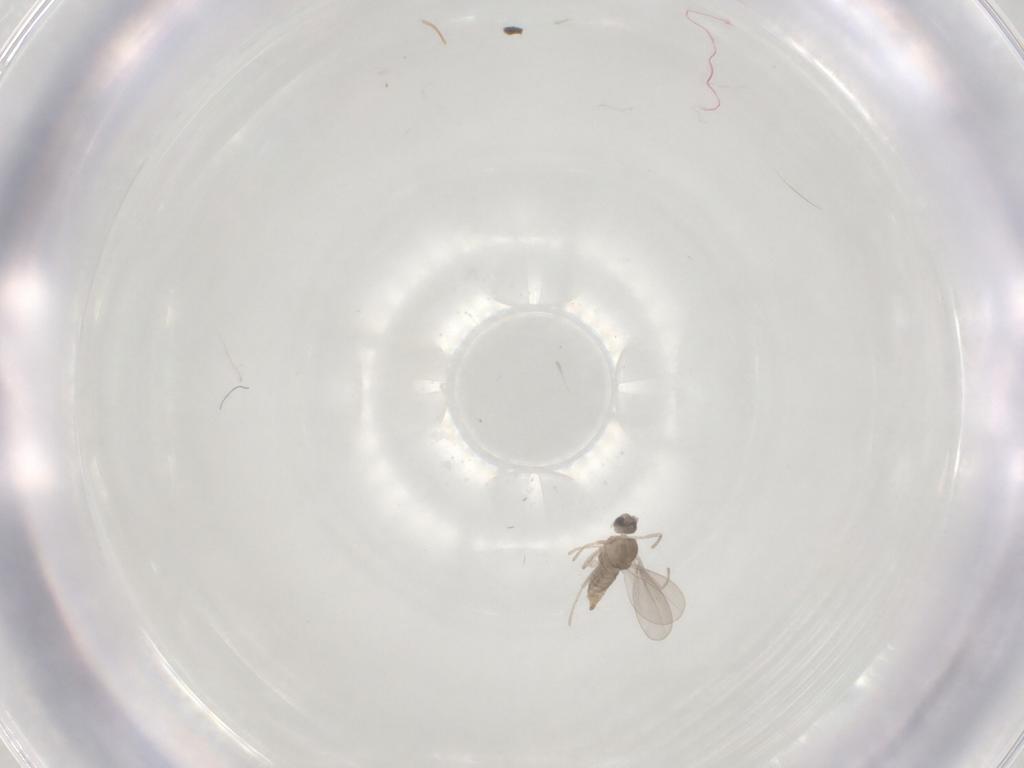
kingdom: Animalia
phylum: Arthropoda
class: Insecta
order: Diptera
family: Cecidomyiidae
